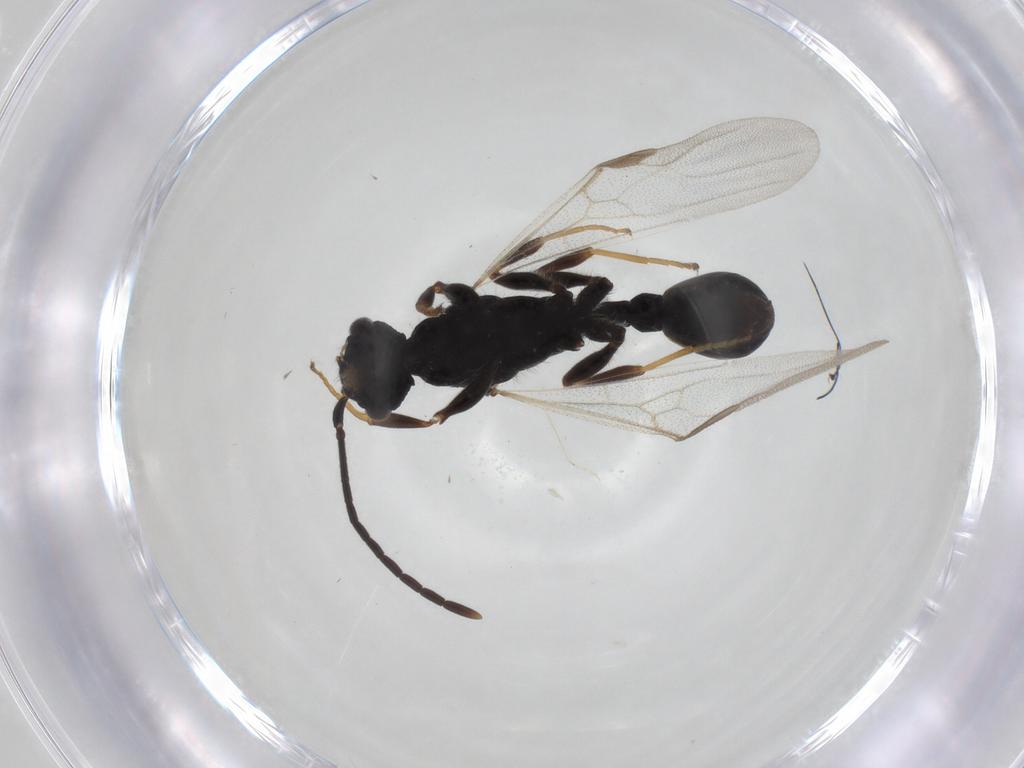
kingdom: Animalia
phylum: Arthropoda
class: Insecta
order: Hymenoptera
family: Formicidae
